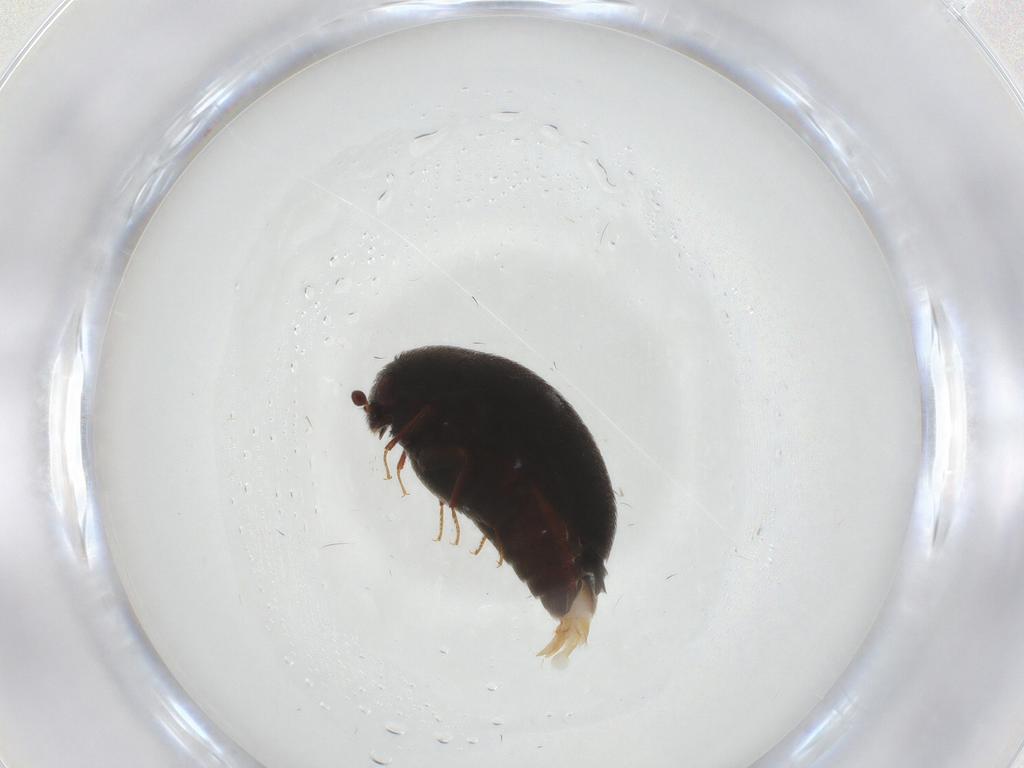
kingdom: Animalia
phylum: Arthropoda
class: Insecta
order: Coleoptera
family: Dermestidae
